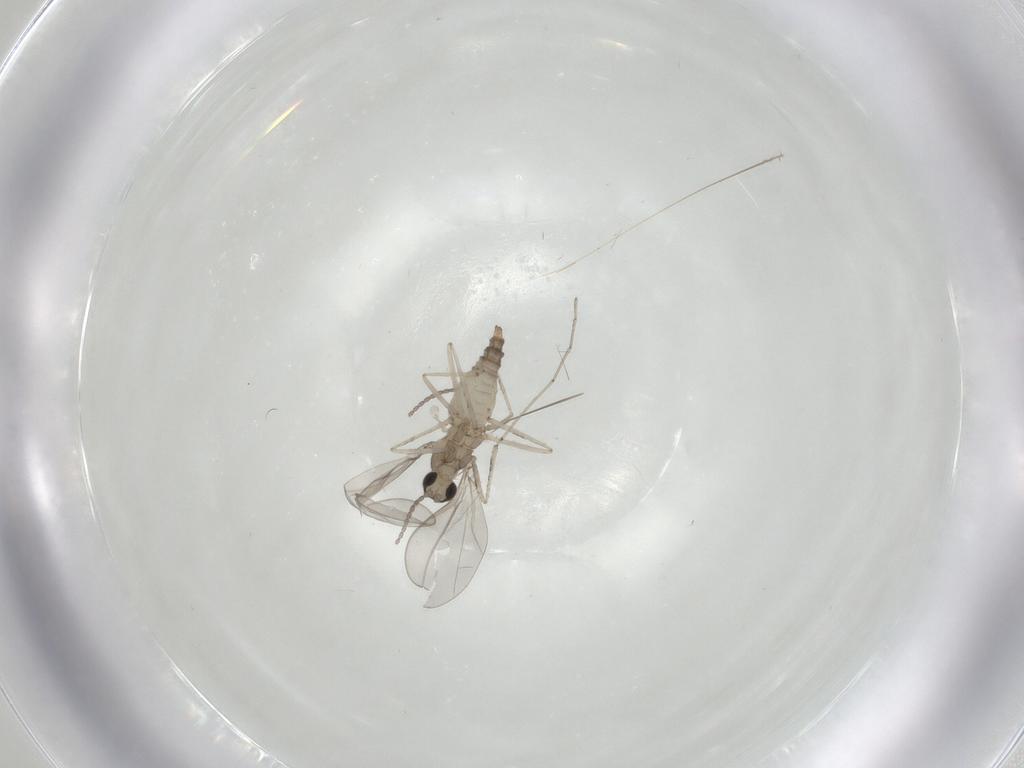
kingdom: Animalia
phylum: Arthropoda
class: Insecta
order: Diptera
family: Cecidomyiidae
